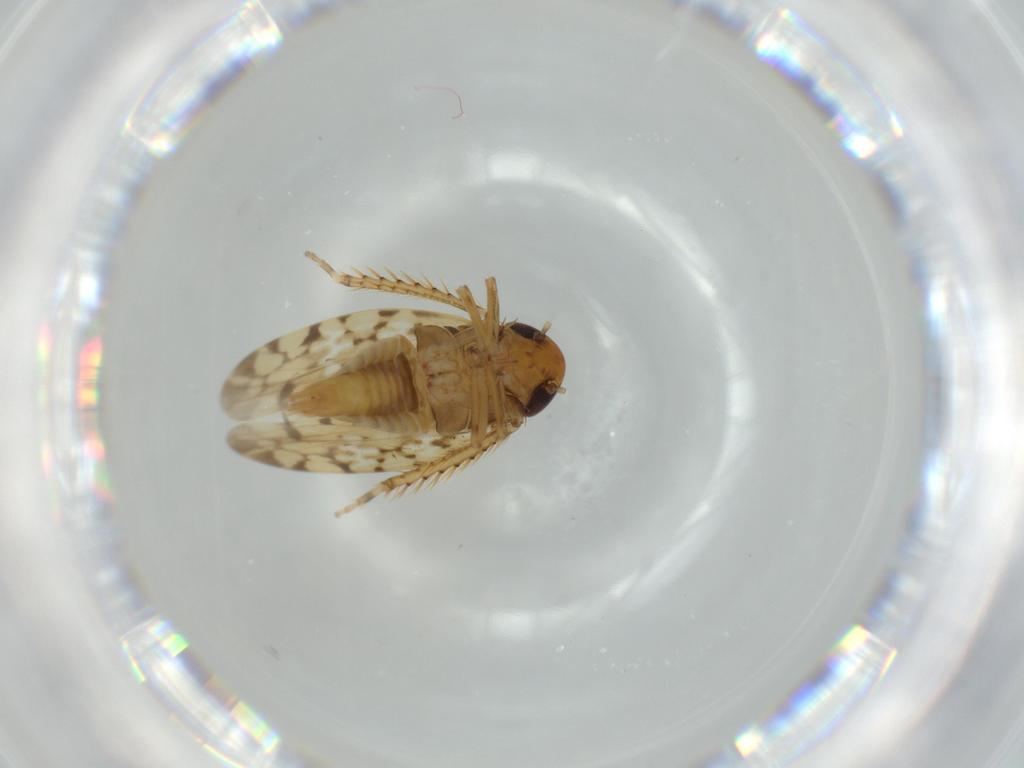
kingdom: Animalia
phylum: Arthropoda
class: Insecta
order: Hemiptera
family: Cicadellidae
